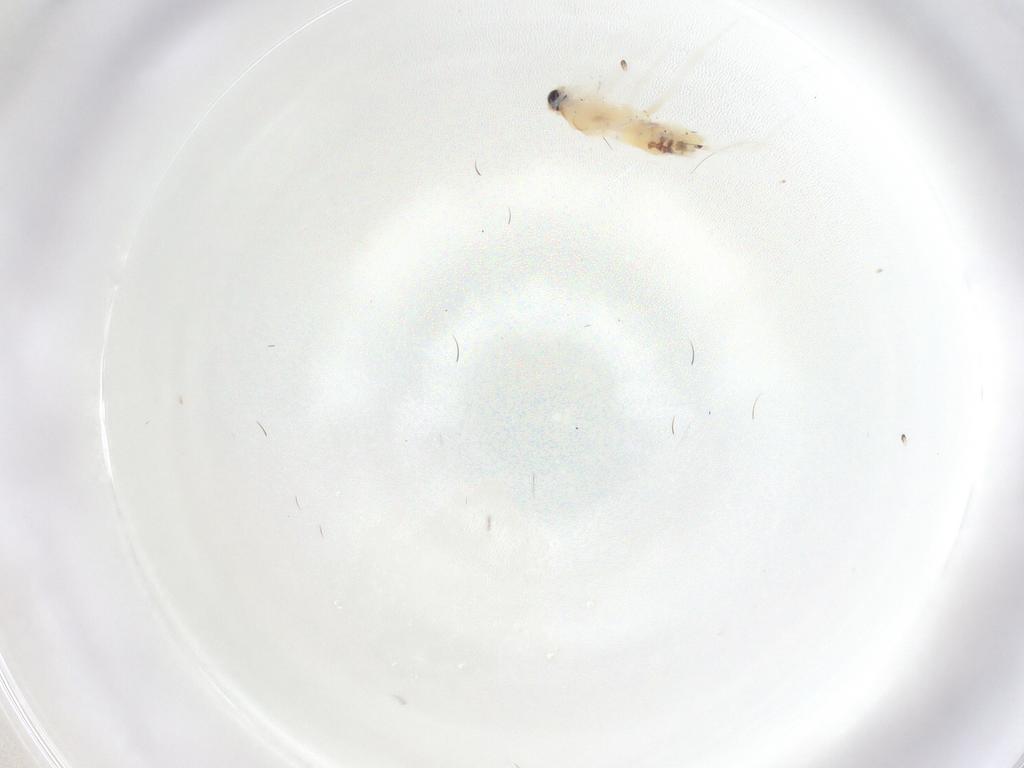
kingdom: Animalia
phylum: Arthropoda
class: Insecta
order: Lepidoptera
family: Gelechiidae
